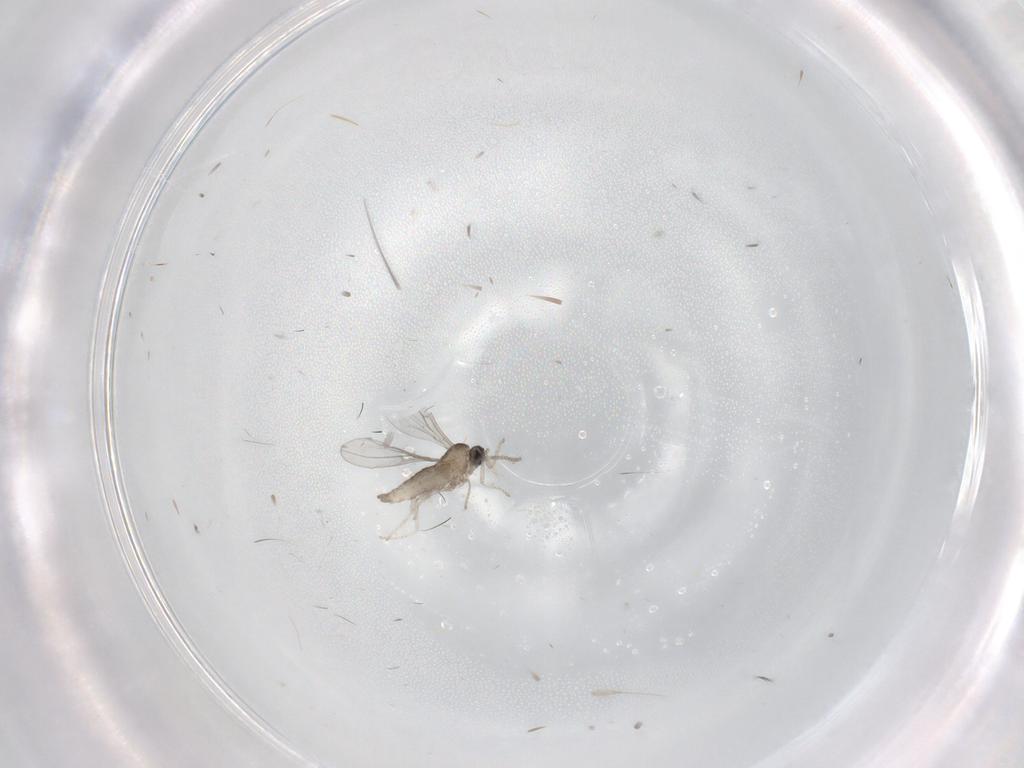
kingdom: Animalia
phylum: Arthropoda
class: Insecta
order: Diptera
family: Cecidomyiidae
